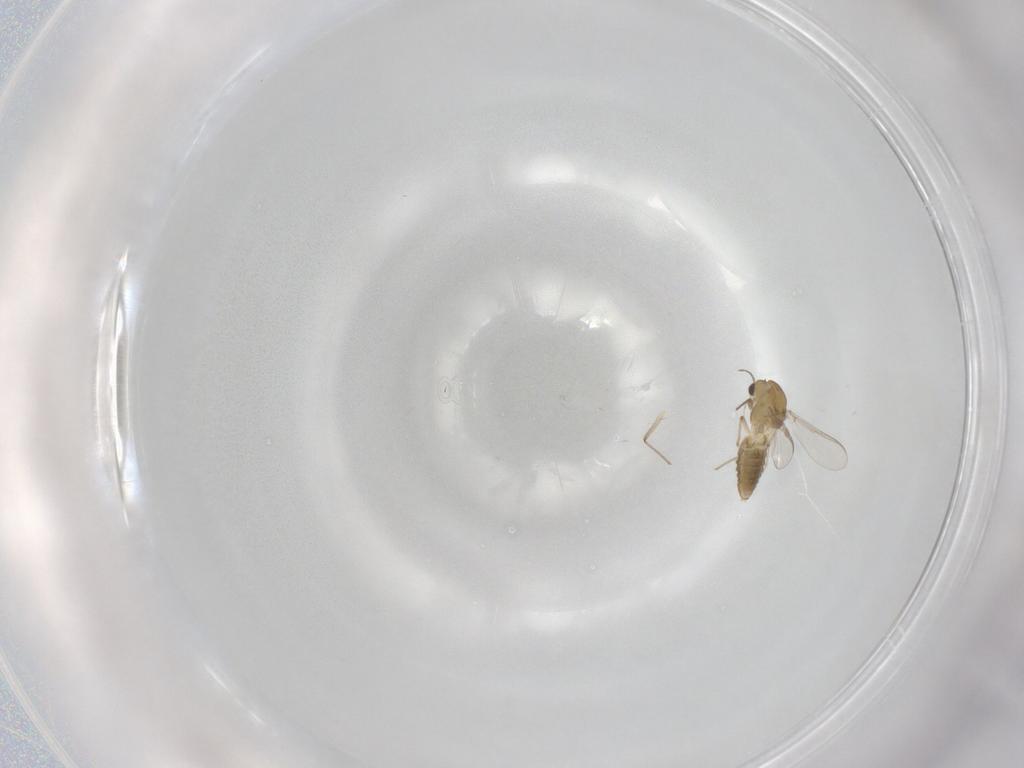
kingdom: Animalia
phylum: Arthropoda
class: Insecta
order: Diptera
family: Chironomidae
